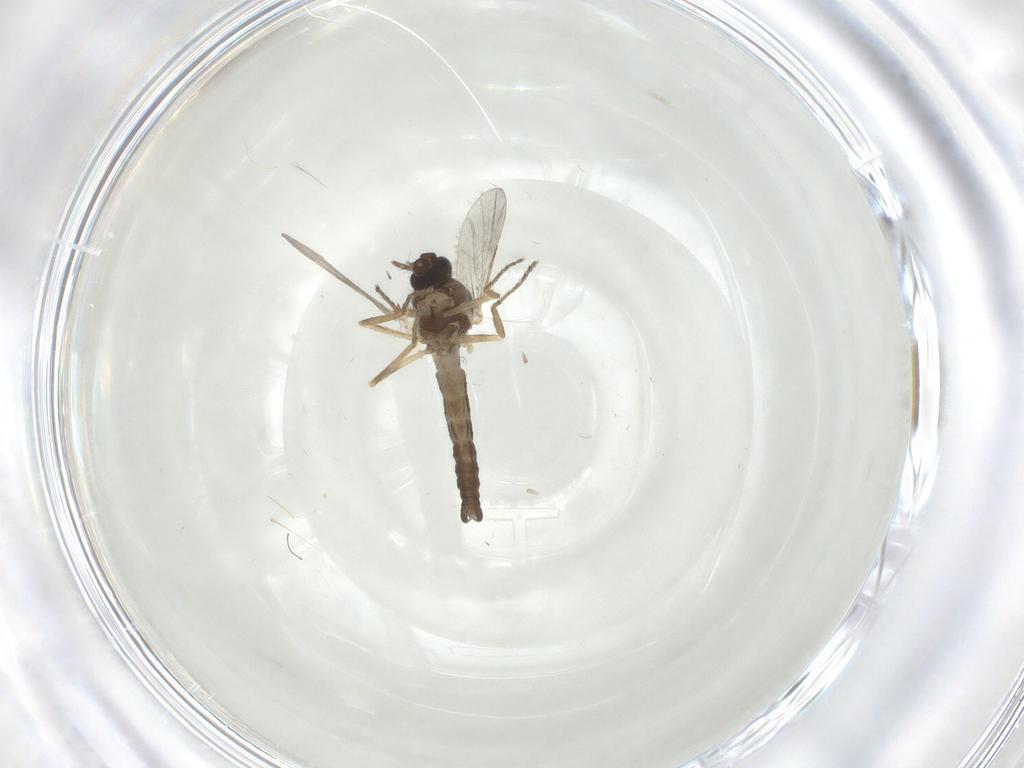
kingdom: Animalia
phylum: Arthropoda
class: Insecta
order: Diptera
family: Ceratopogonidae
